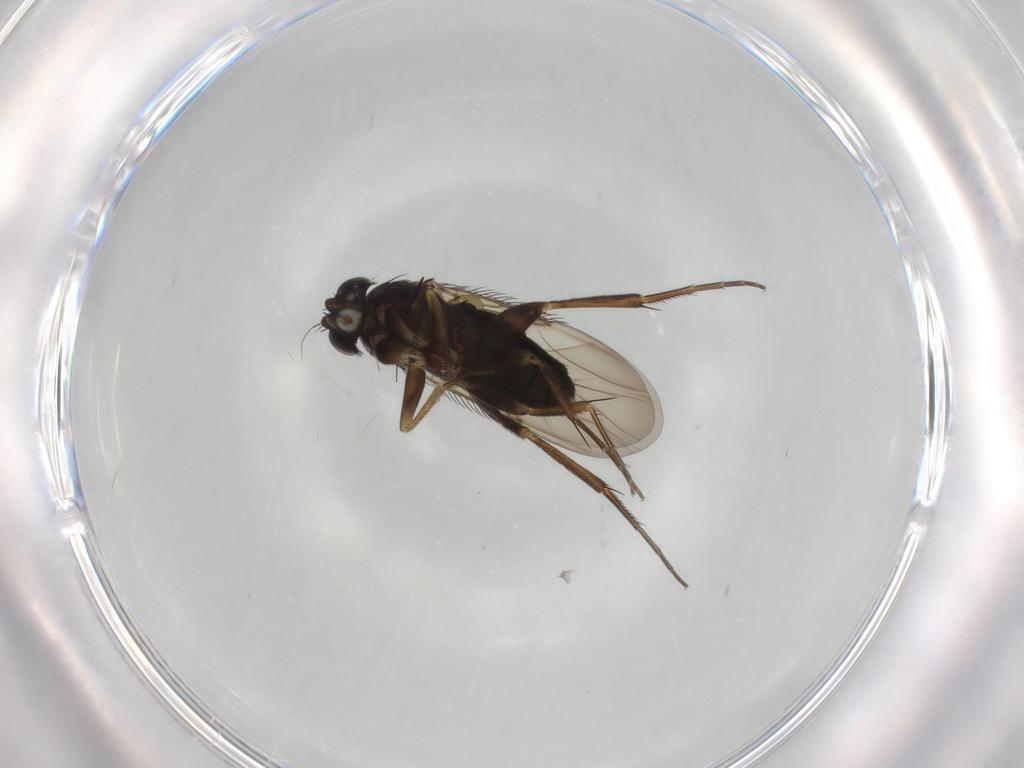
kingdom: Animalia
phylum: Arthropoda
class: Insecta
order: Diptera
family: Phoridae
